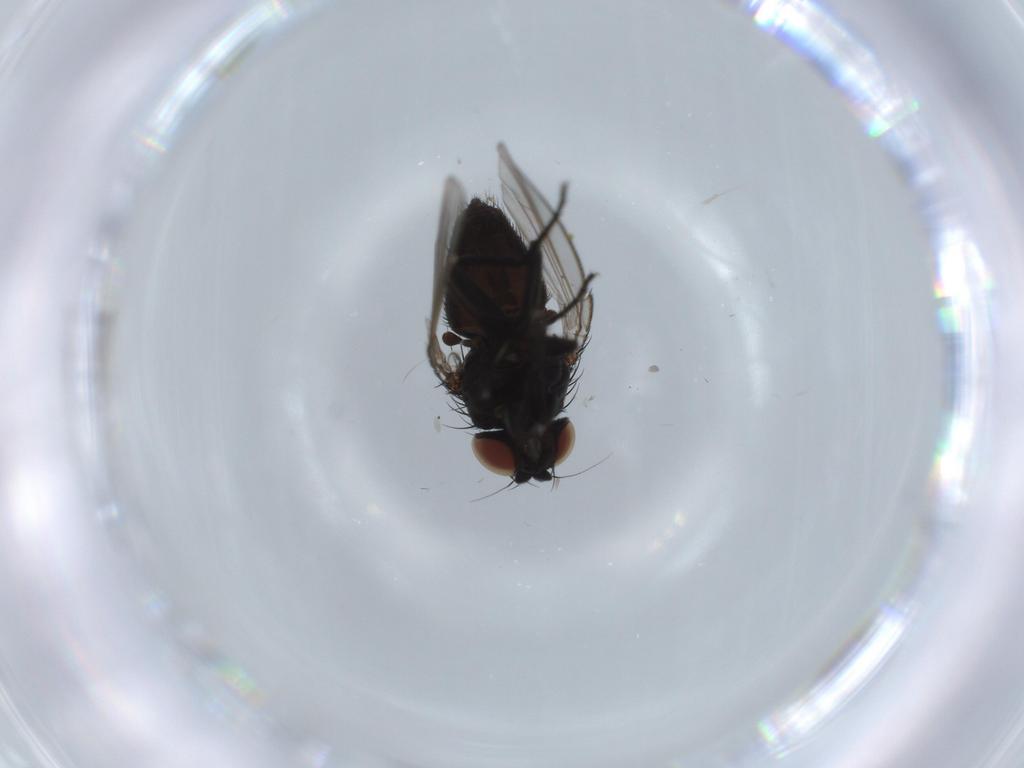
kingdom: Animalia
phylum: Arthropoda
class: Insecta
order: Diptera
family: Milichiidae
